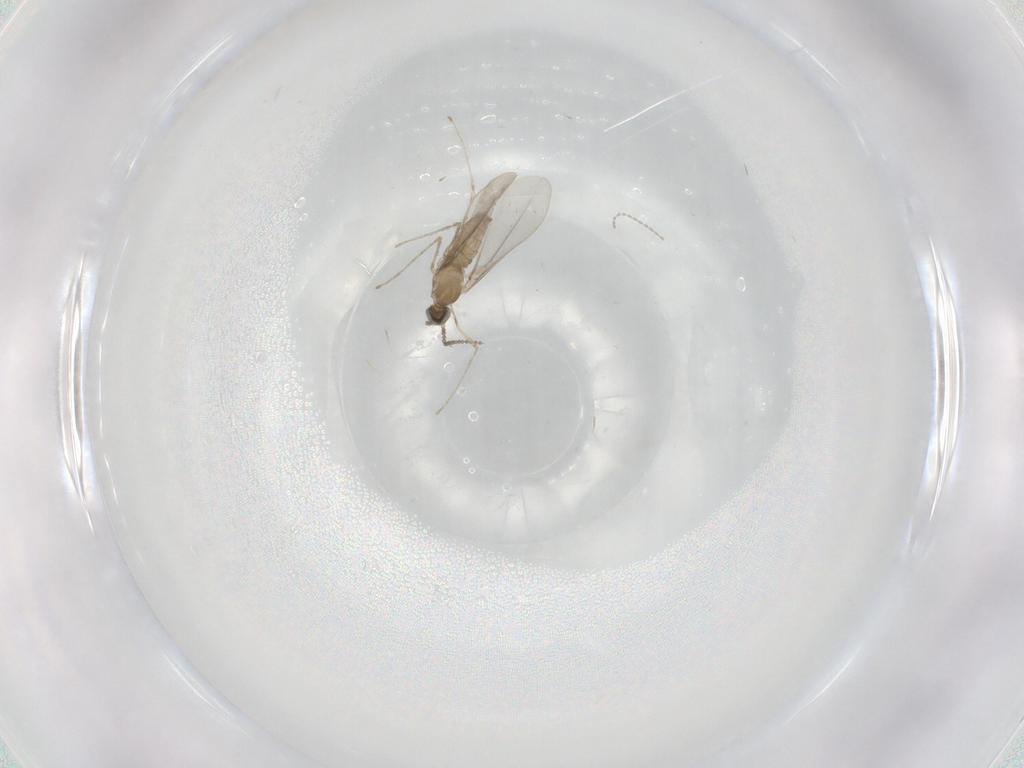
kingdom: Animalia
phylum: Arthropoda
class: Insecta
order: Diptera
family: Cecidomyiidae
